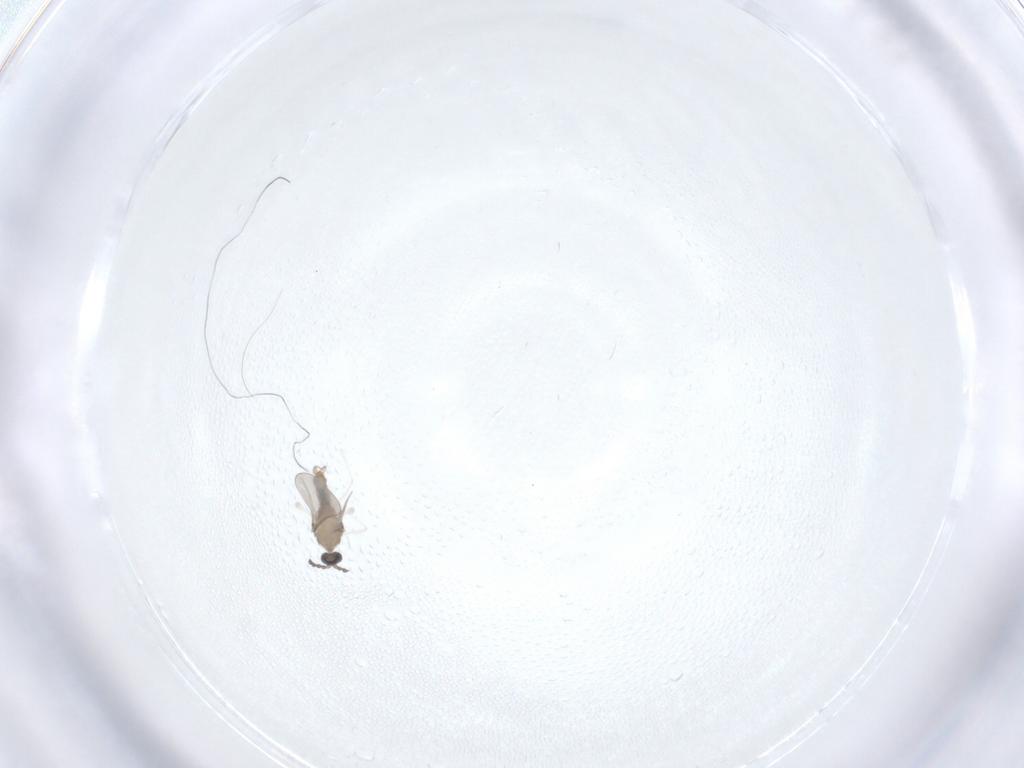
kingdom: Animalia
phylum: Arthropoda
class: Insecta
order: Diptera
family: Cecidomyiidae
